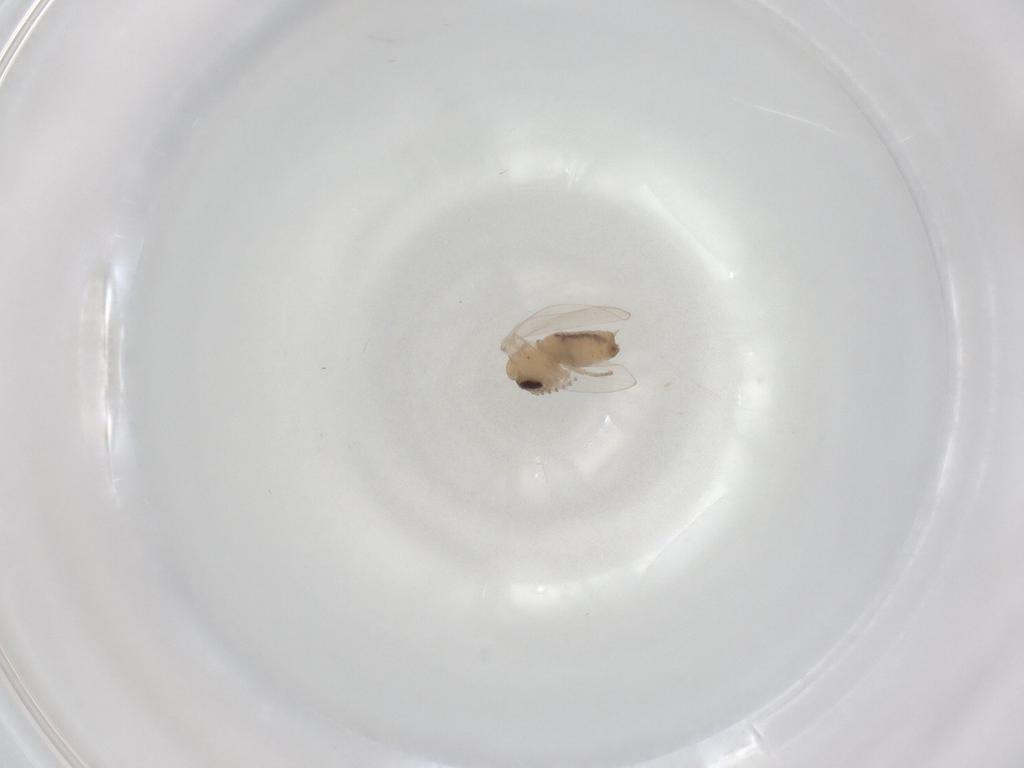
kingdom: Animalia
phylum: Arthropoda
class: Insecta
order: Diptera
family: Psychodidae
